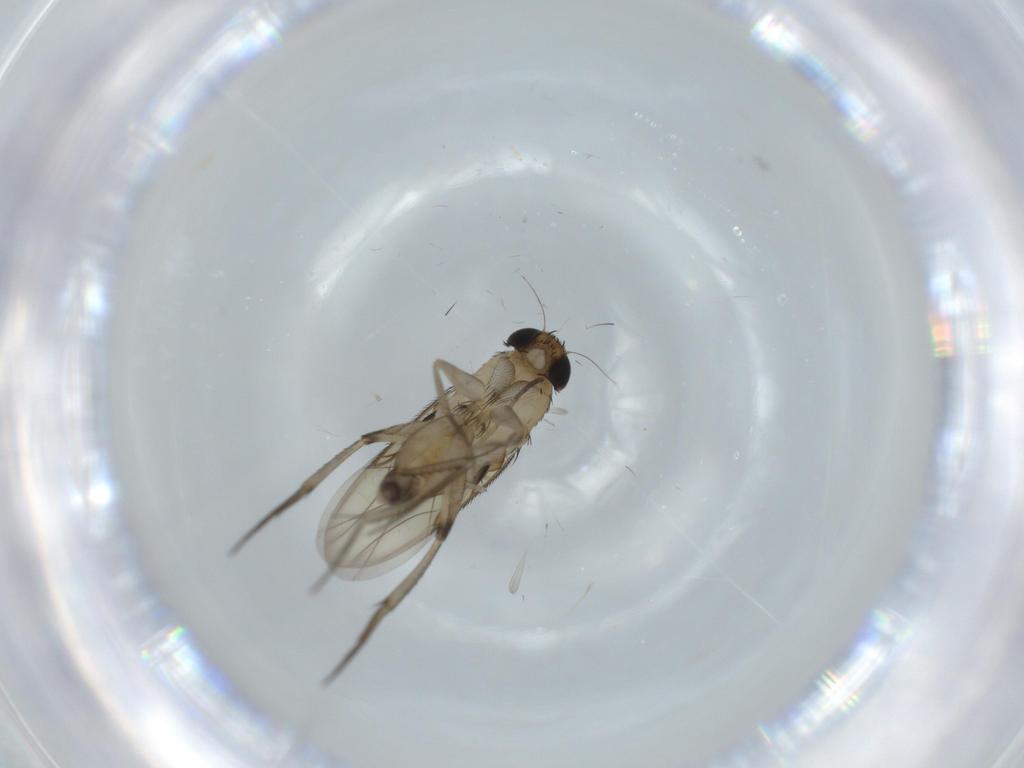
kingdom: Animalia
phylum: Arthropoda
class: Insecta
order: Diptera
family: Phoridae
